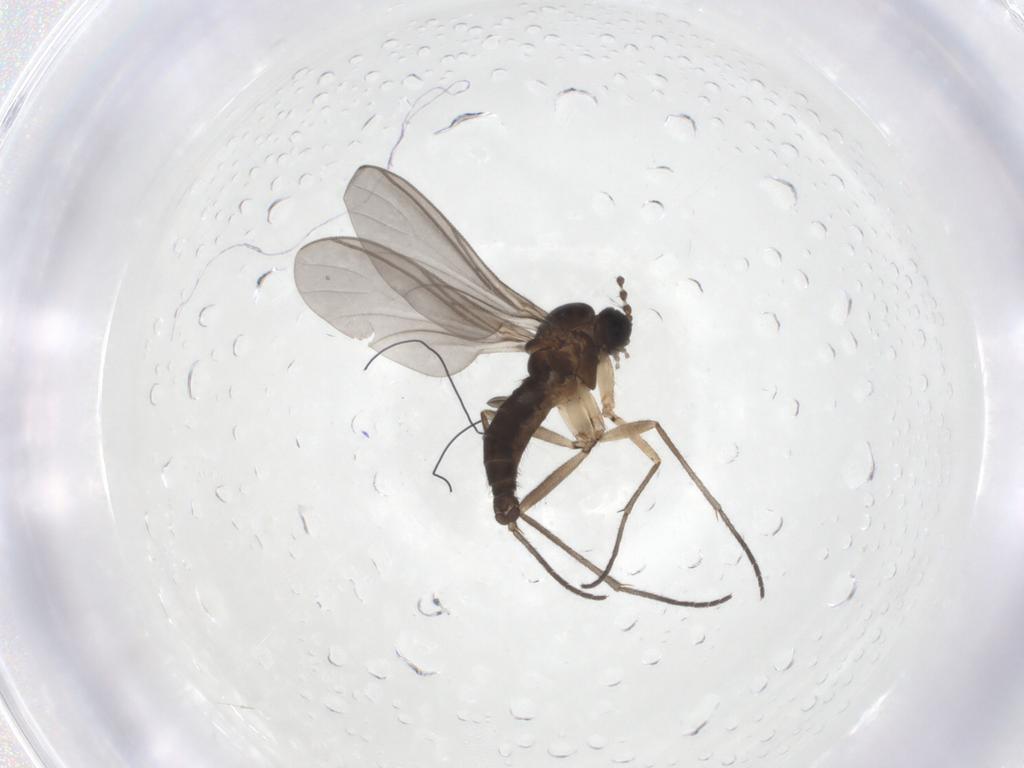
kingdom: Animalia
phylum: Arthropoda
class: Insecta
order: Diptera
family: Sciaridae
